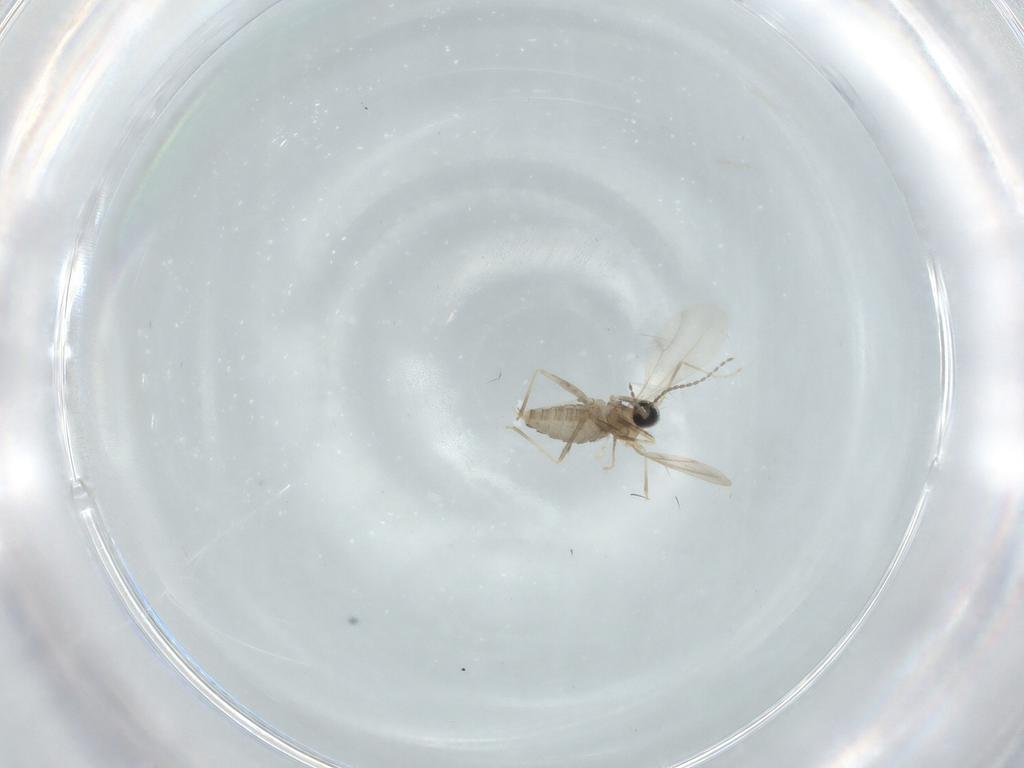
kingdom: Animalia
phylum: Arthropoda
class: Insecta
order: Diptera
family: Cecidomyiidae
